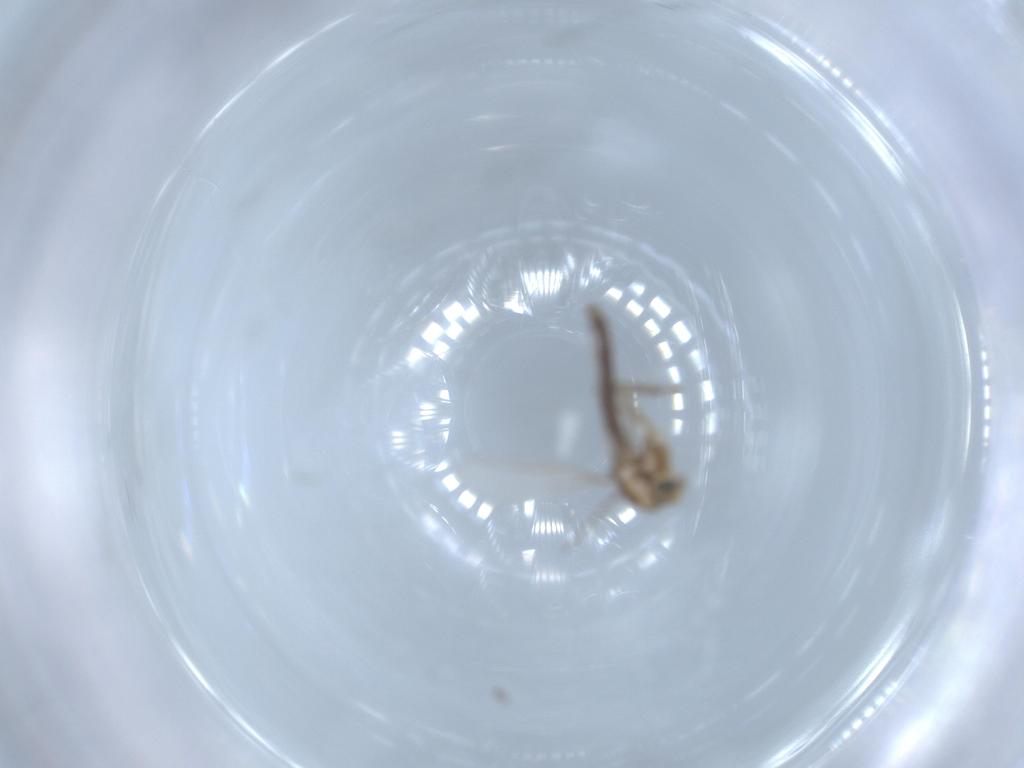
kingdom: Animalia
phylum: Arthropoda
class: Insecta
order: Diptera
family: Chironomidae
